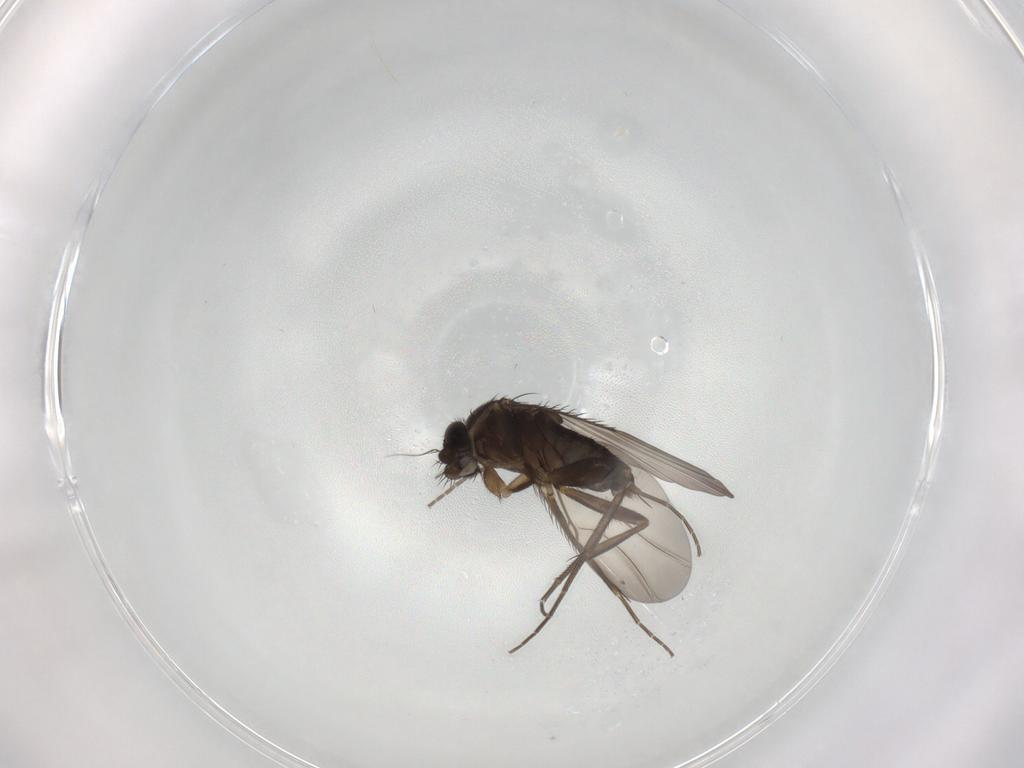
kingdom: Animalia
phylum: Arthropoda
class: Insecta
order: Diptera
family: Phoridae
